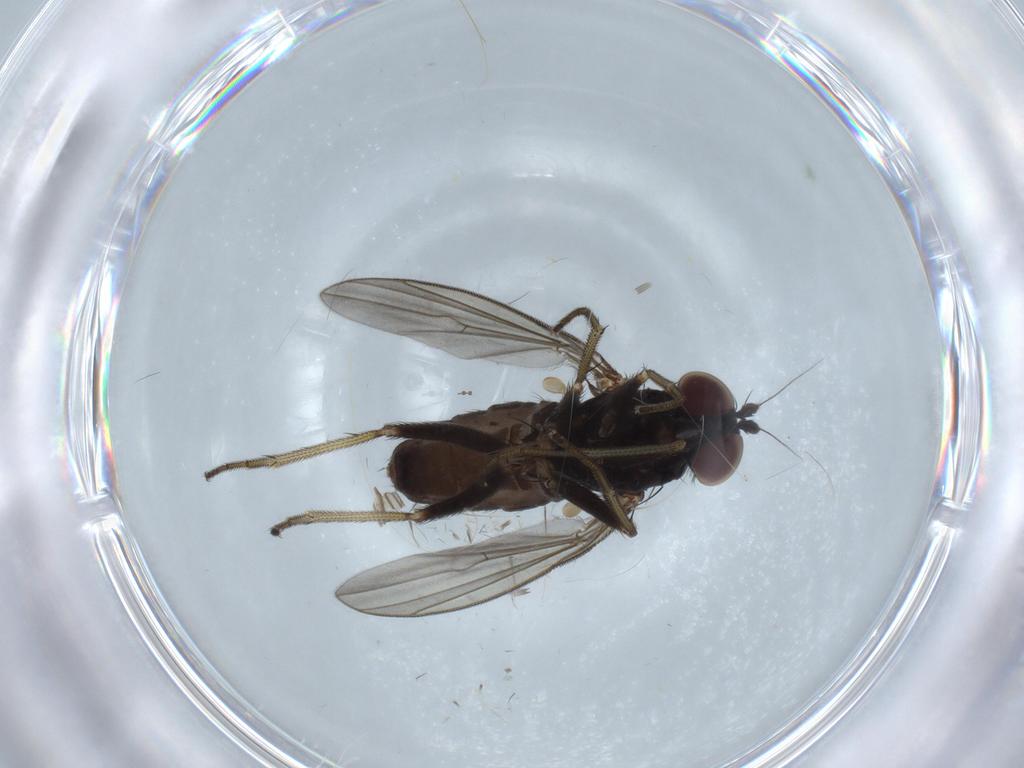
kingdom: Animalia
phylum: Arthropoda
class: Insecta
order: Diptera
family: Dolichopodidae
